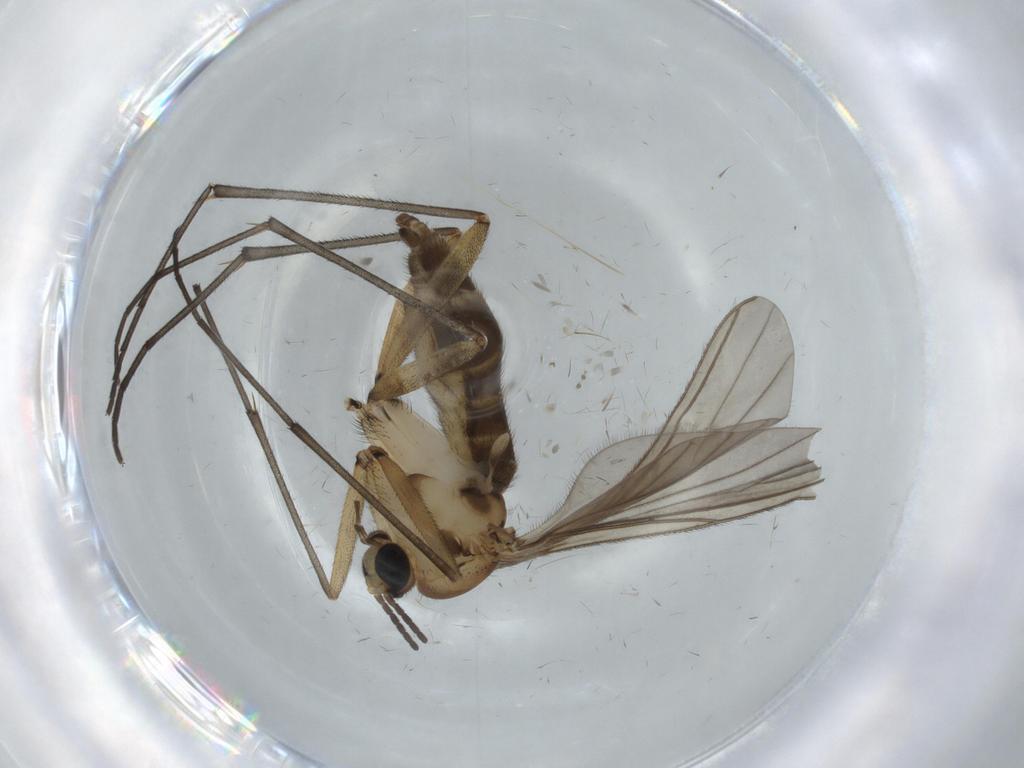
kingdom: Animalia
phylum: Arthropoda
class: Insecta
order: Diptera
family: Sciaridae
